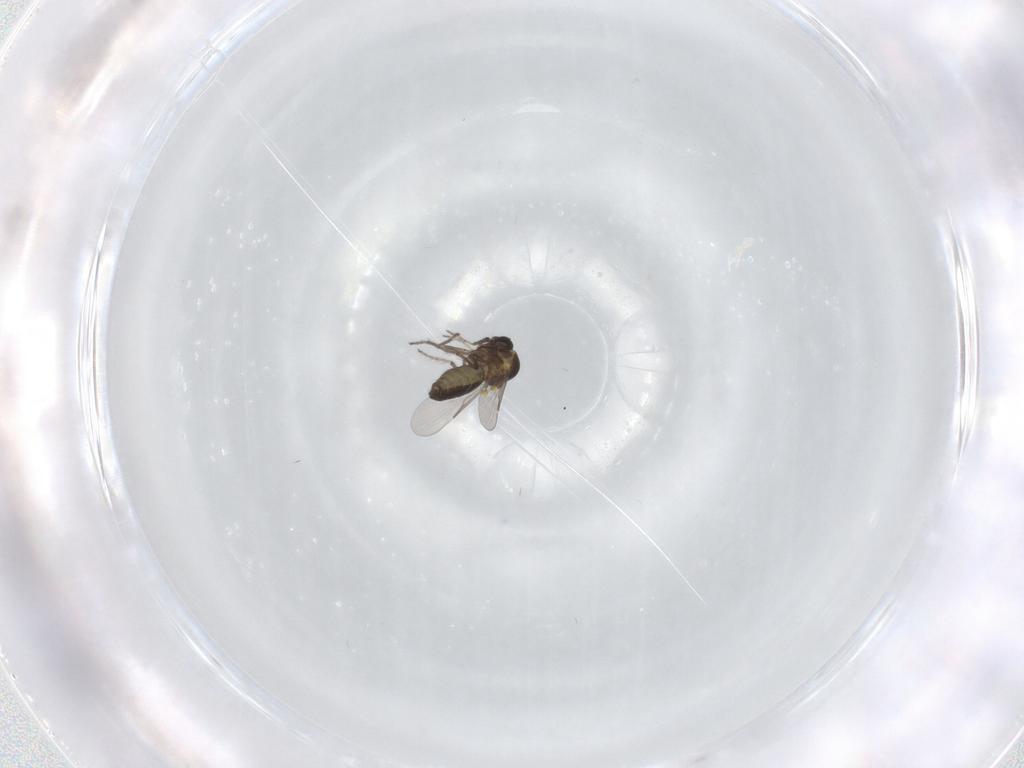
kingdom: Animalia
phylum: Arthropoda
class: Insecta
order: Diptera
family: Ceratopogonidae
